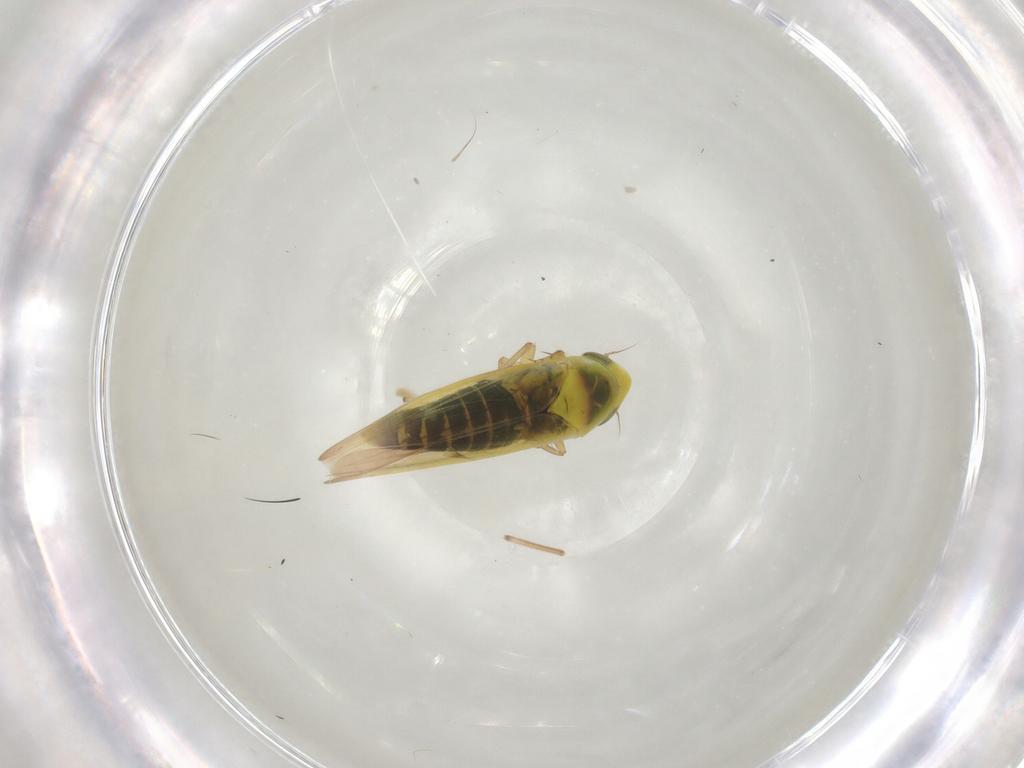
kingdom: Animalia
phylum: Arthropoda
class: Insecta
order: Hemiptera
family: Cicadellidae
